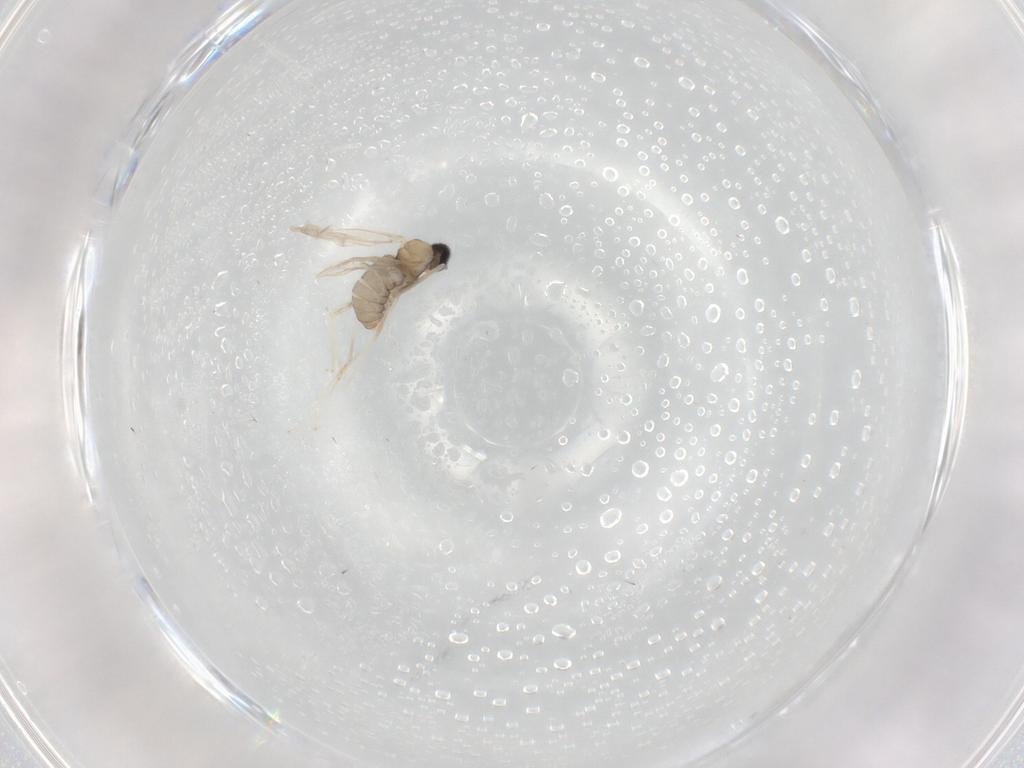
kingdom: Animalia
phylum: Arthropoda
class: Insecta
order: Diptera
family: Cecidomyiidae
